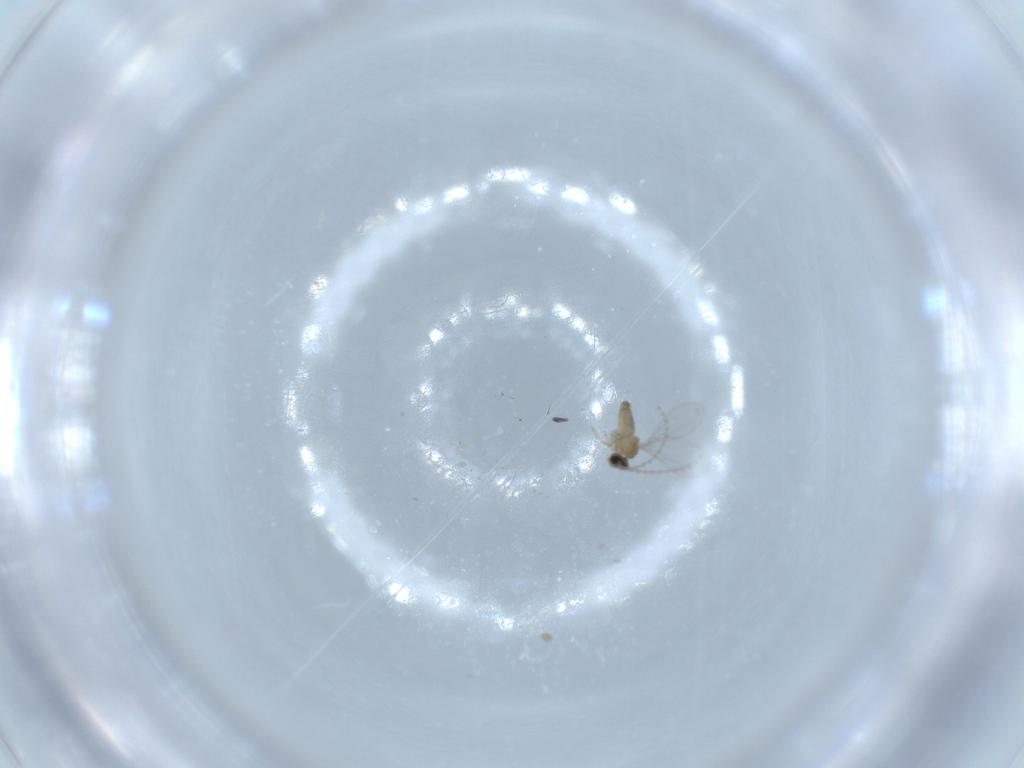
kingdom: Animalia
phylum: Arthropoda
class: Insecta
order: Diptera
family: Cecidomyiidae
